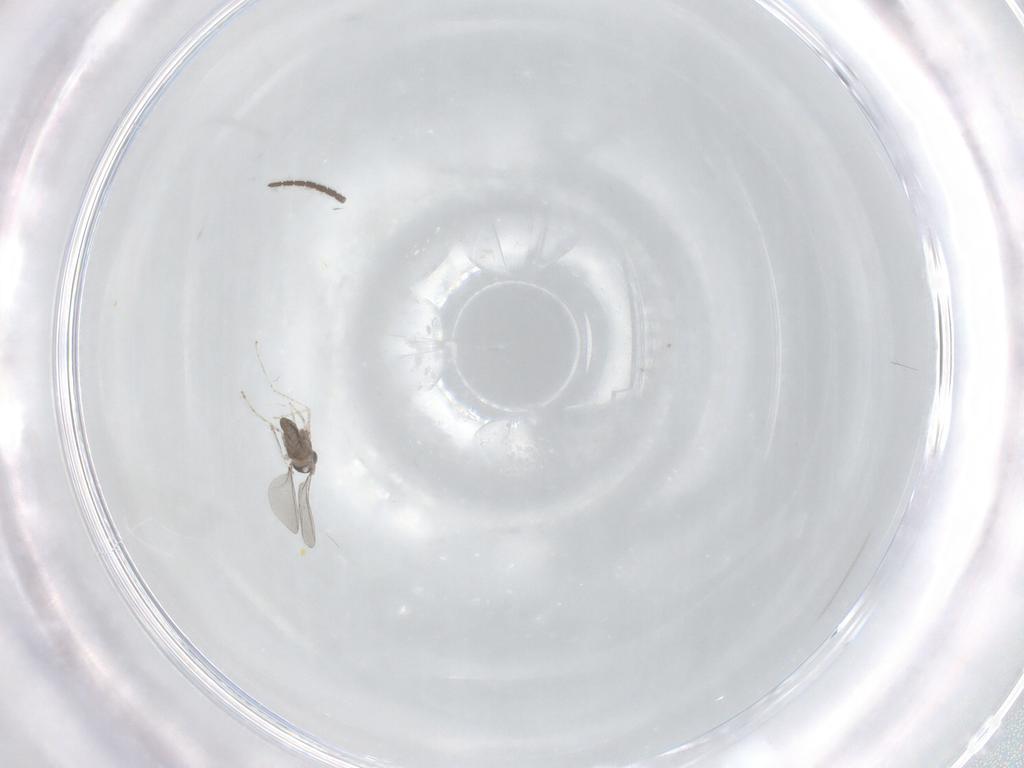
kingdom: Animalia
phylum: Arthropoda
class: Insecta
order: Diptera
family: Cecidomyiidae
